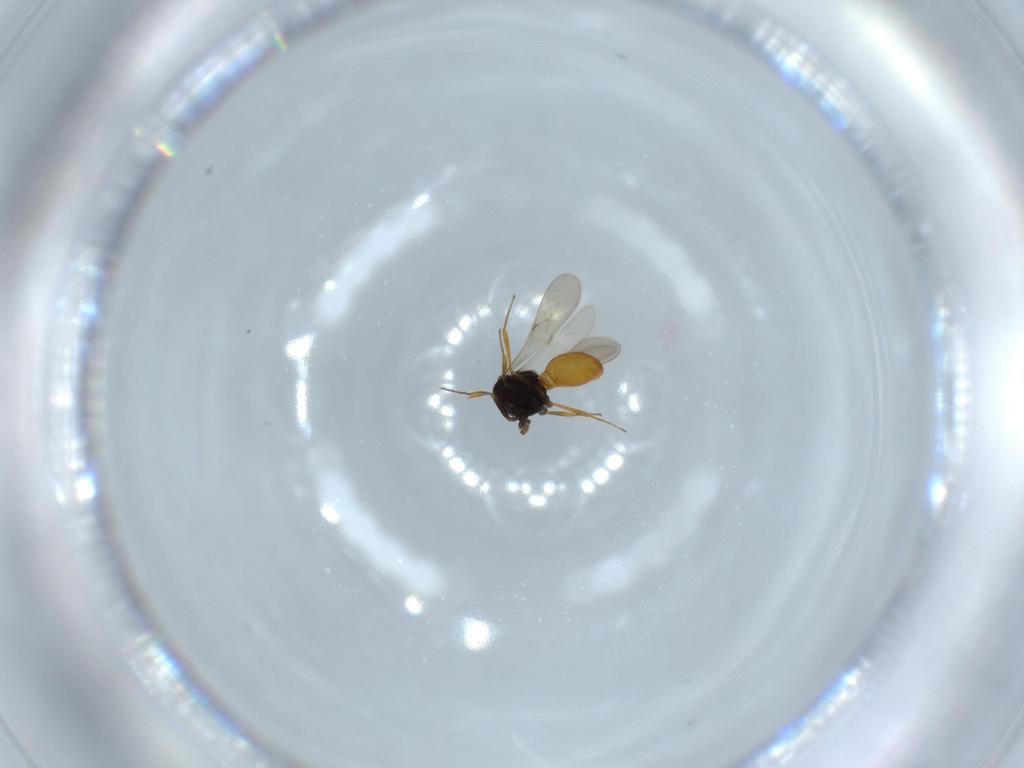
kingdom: Animalia
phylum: Arthropoda
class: Insecta
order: Hymenoptera
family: Scelionidae
